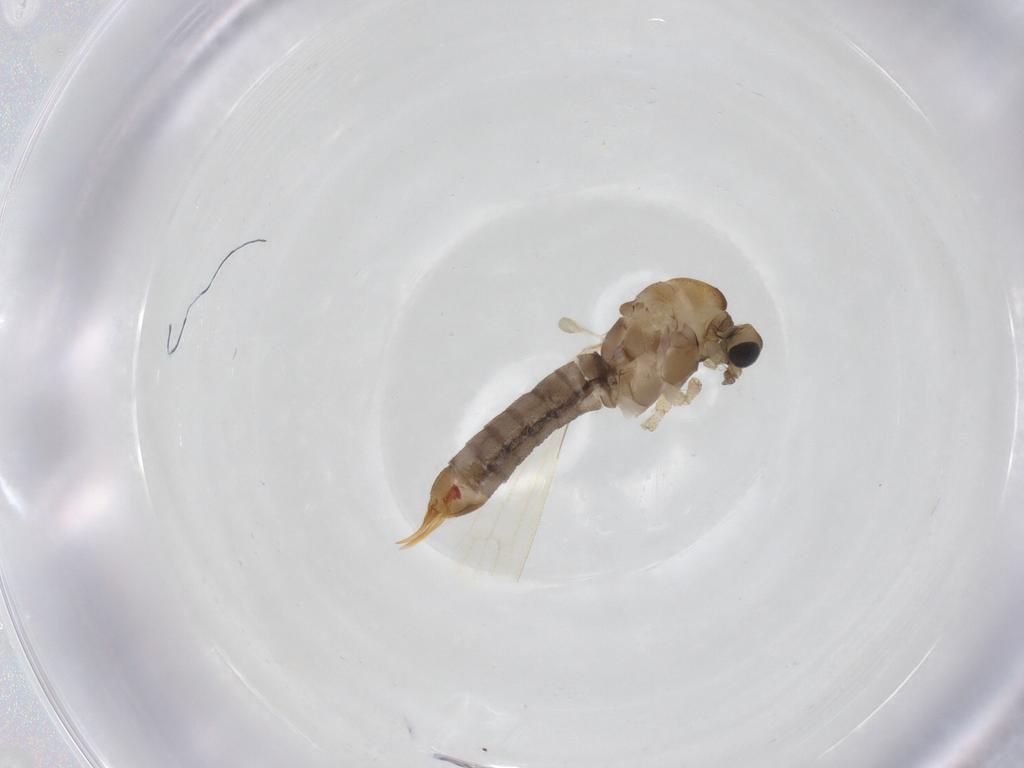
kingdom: Animalia
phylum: Arthropoda
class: Insecta
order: Diptera
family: Limoniidae
